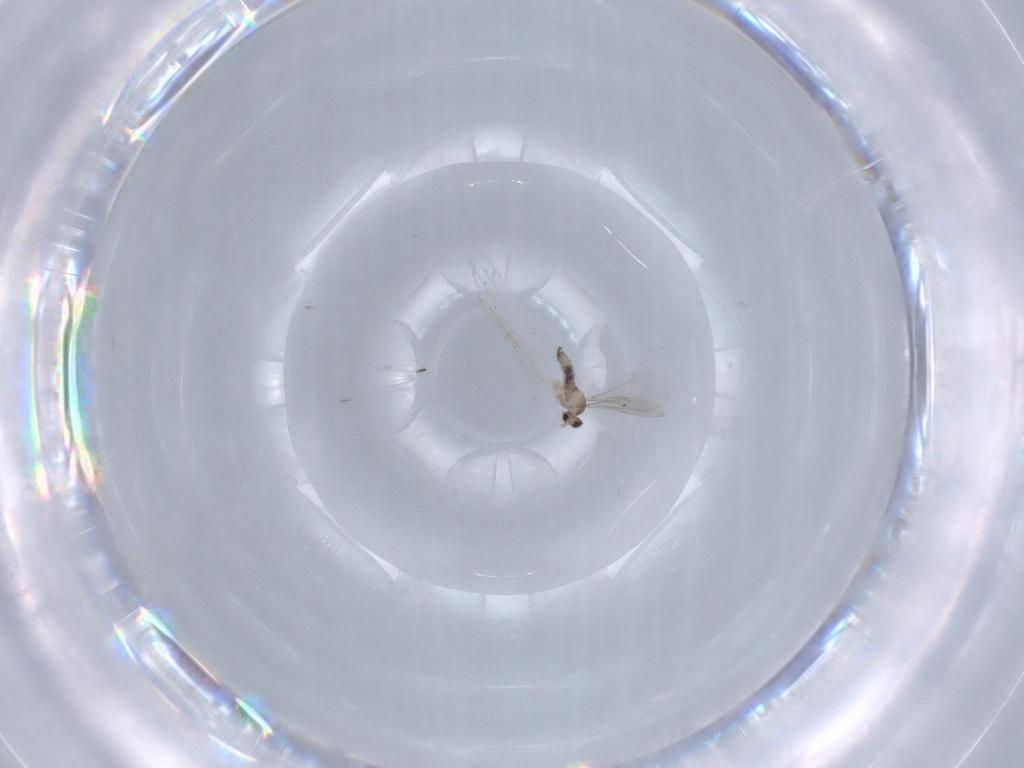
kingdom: Animalia
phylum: Arthropoda
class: Insecta
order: Diptera
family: Cecidomyiidae
